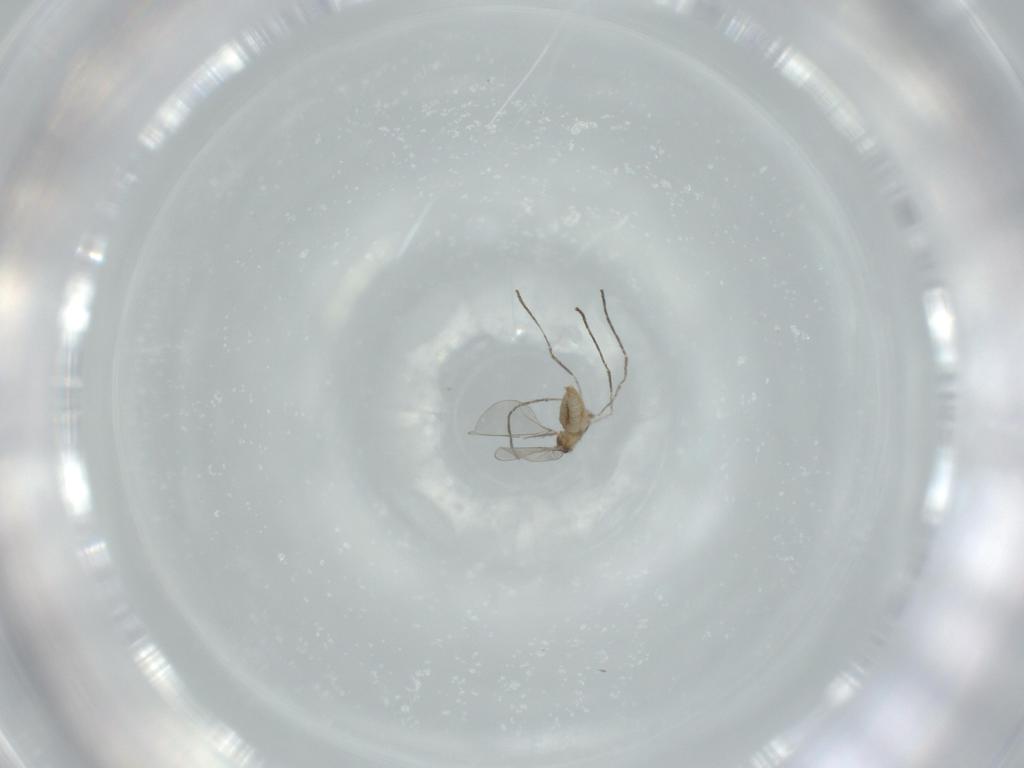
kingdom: Animalia
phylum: Arthropoda
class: Insecta
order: Diptera
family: Cecidomyiidae
